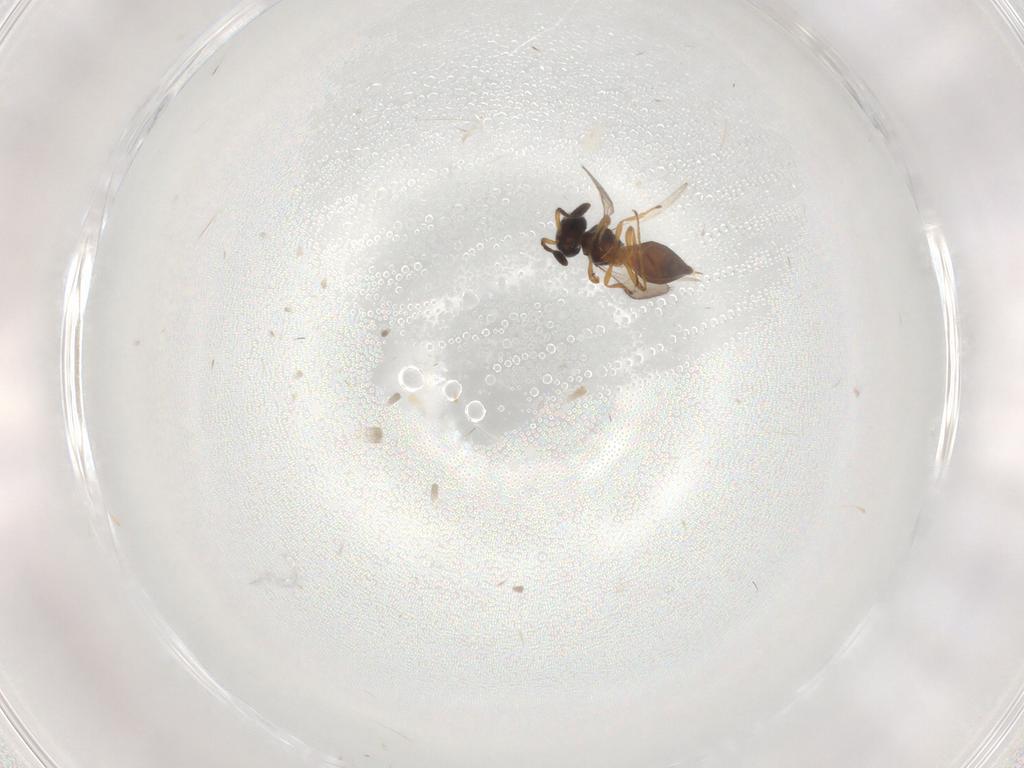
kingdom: Animalia
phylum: Arthropoda
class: Insecta
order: Hymenoptera
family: Scelionidae
